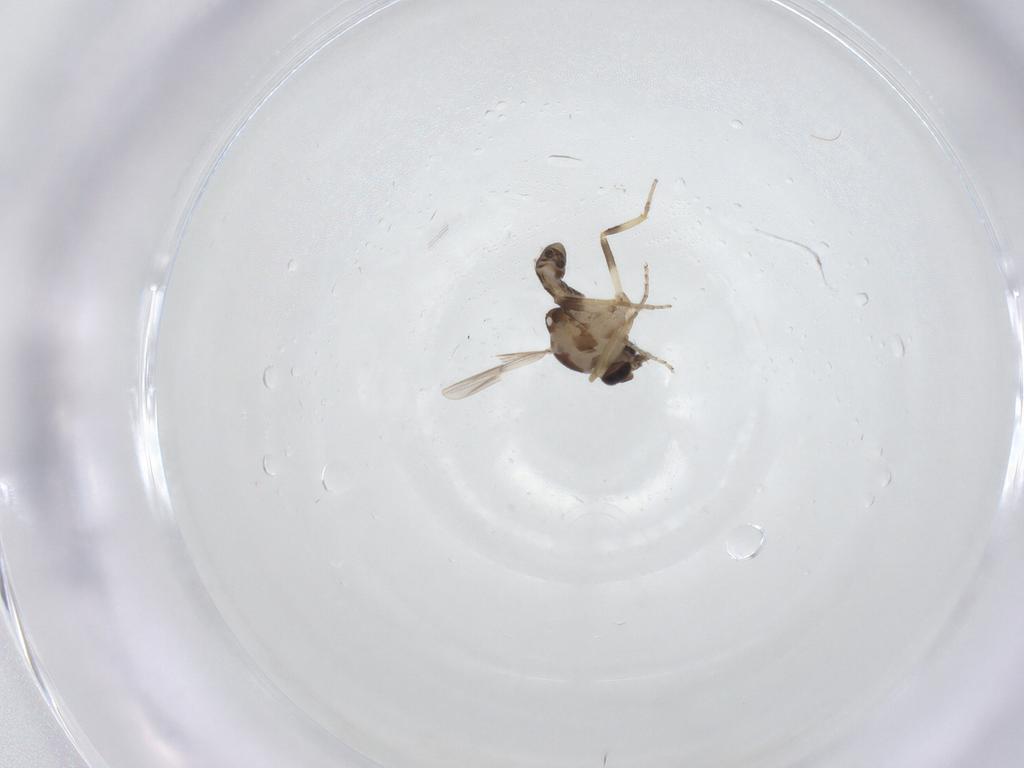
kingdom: Animalia
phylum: Arthropoda
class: Insecta
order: Diptera
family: Ceratopogonidae
